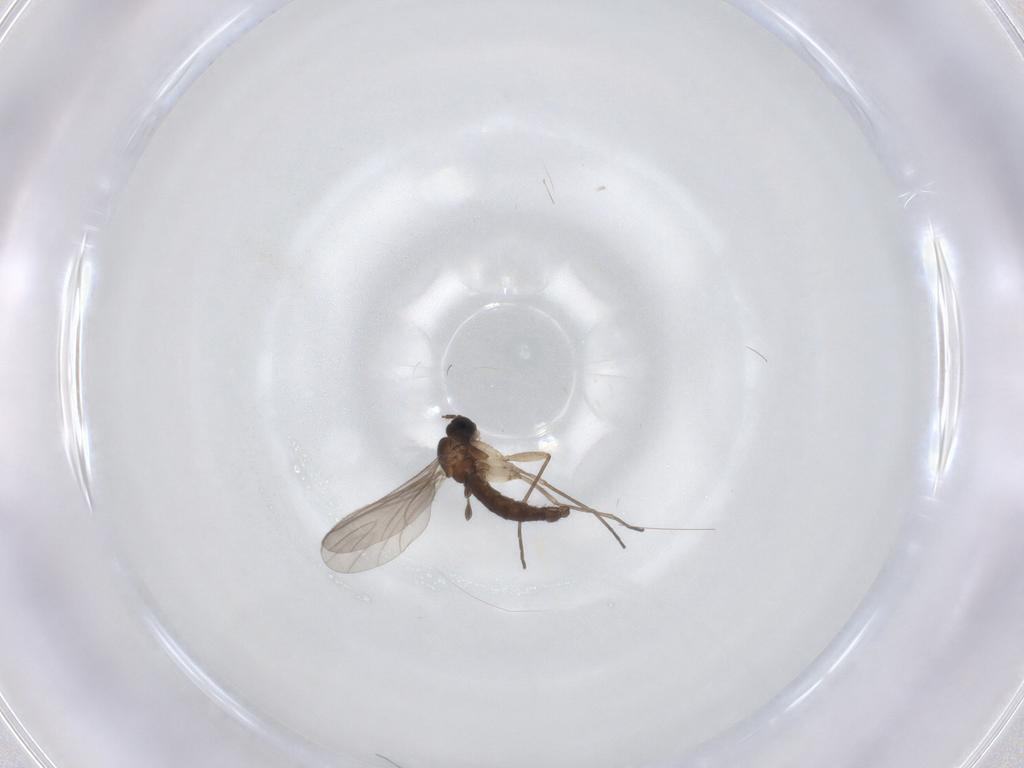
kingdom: Animalia
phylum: Arthropoda
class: Insecta
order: Diptera
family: Sciaridae
